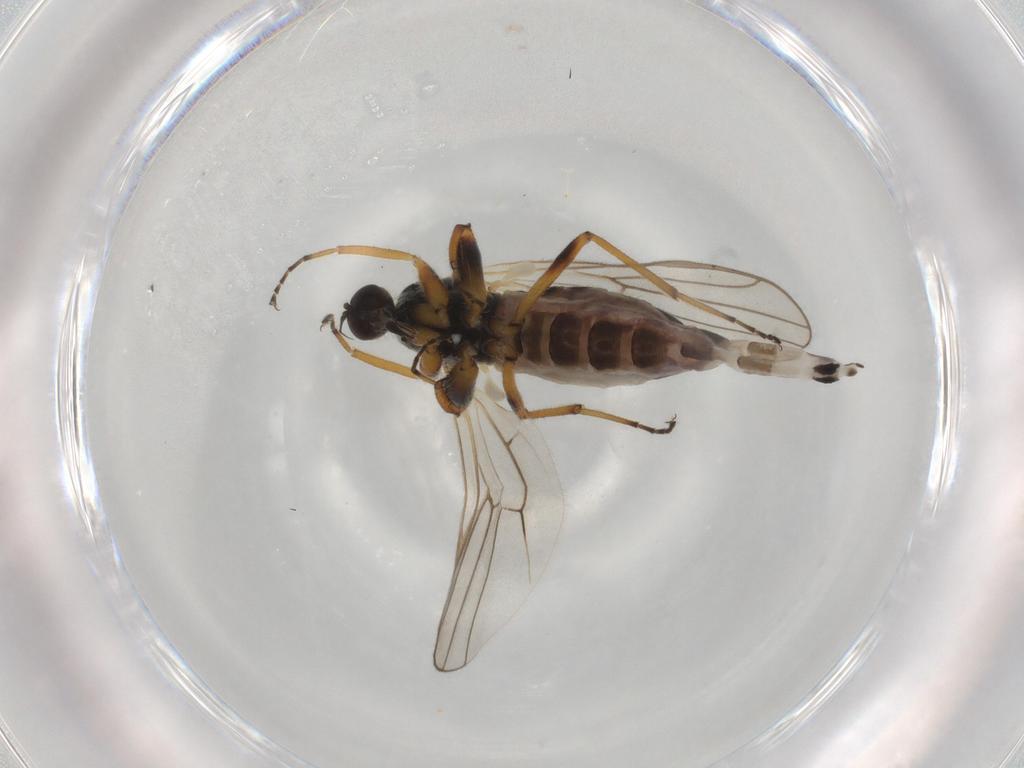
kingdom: Animalia
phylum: Arthropoda
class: Insecta
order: Diptera
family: Hybotidae
